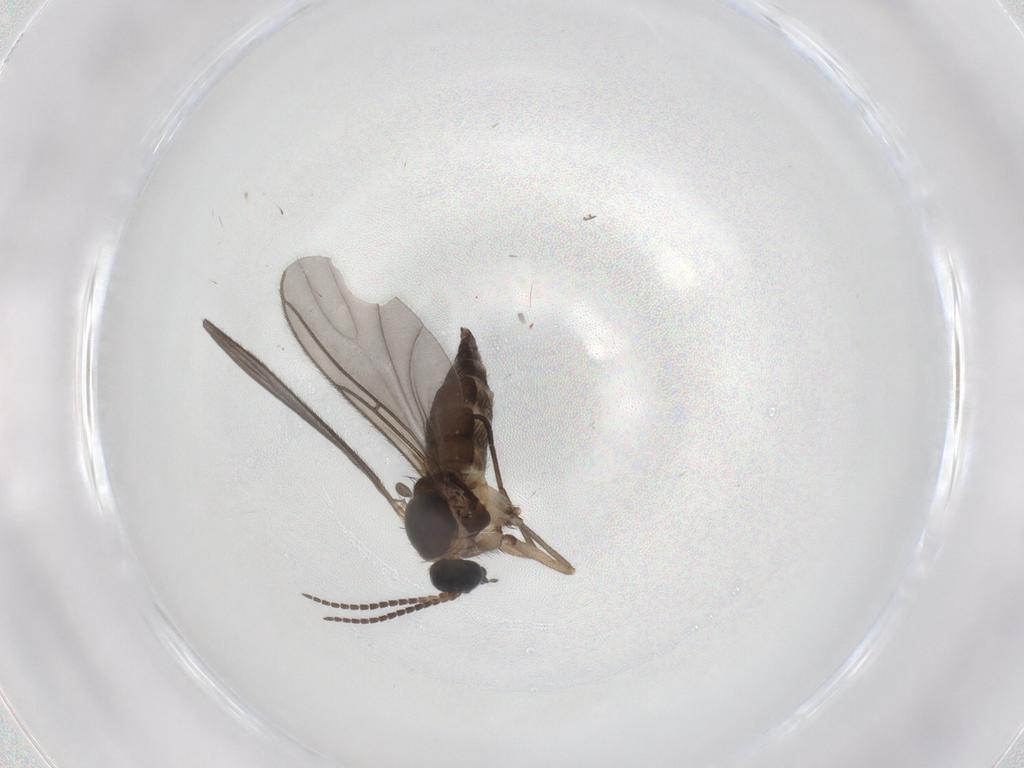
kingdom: Animalia
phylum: Arthropoda
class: Insecta
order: Diptera
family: Sciaridae
